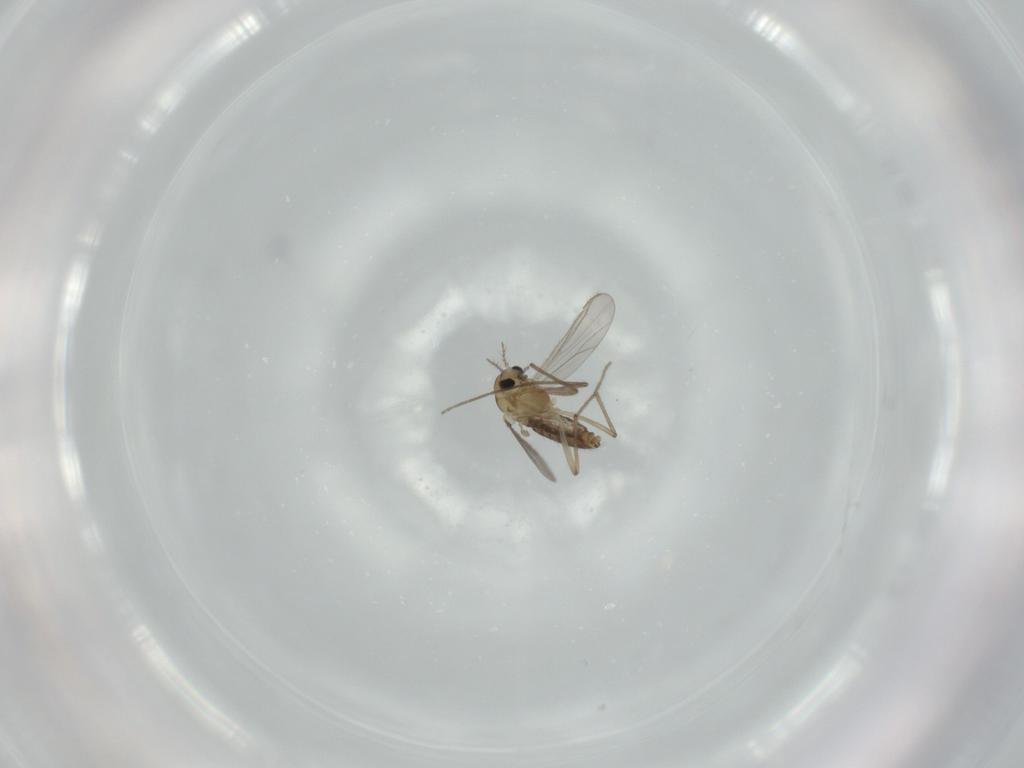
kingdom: Animalia
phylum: Arthropoda
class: Insecta
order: Diptera
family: Chironomidae
